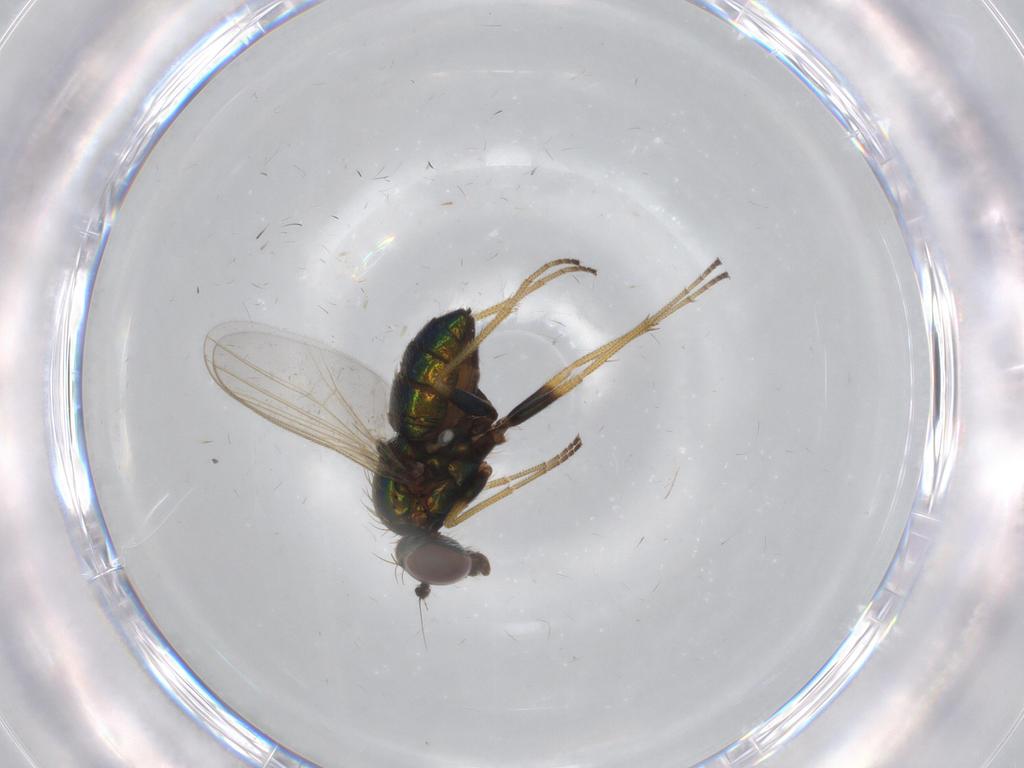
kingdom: Animalia
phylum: Arthropoda
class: Insecta
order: Diptera
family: Dolichopodidae
